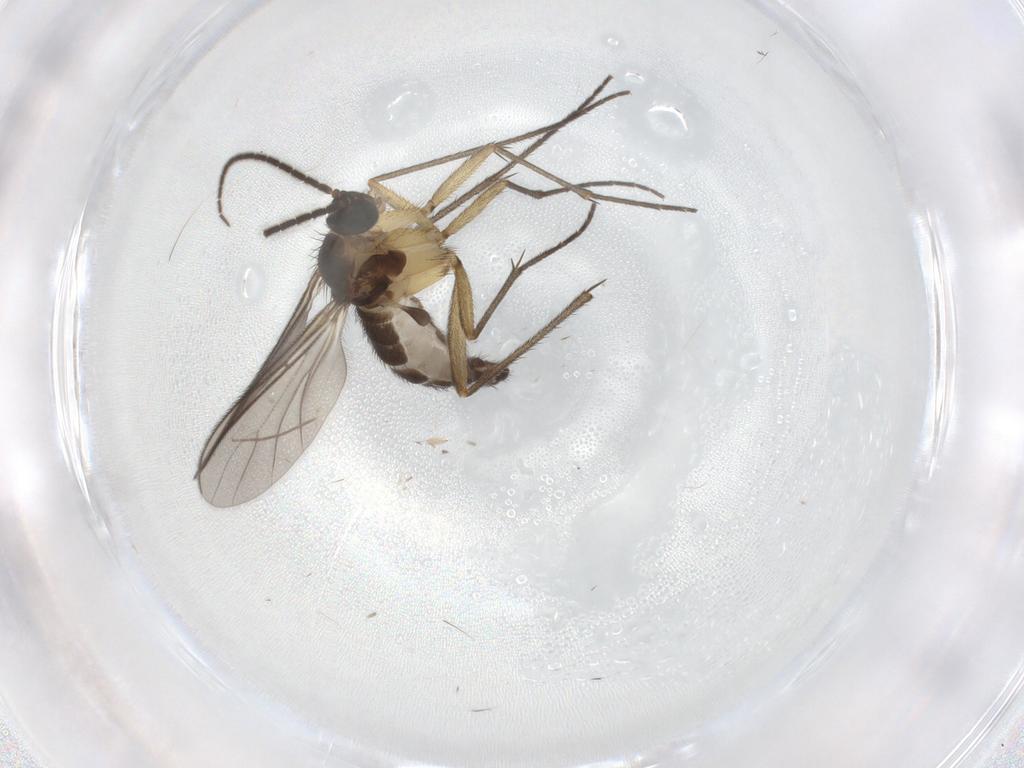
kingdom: Animalia
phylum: Arthropoda
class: Insecta
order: Diptera
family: Sciaridae
